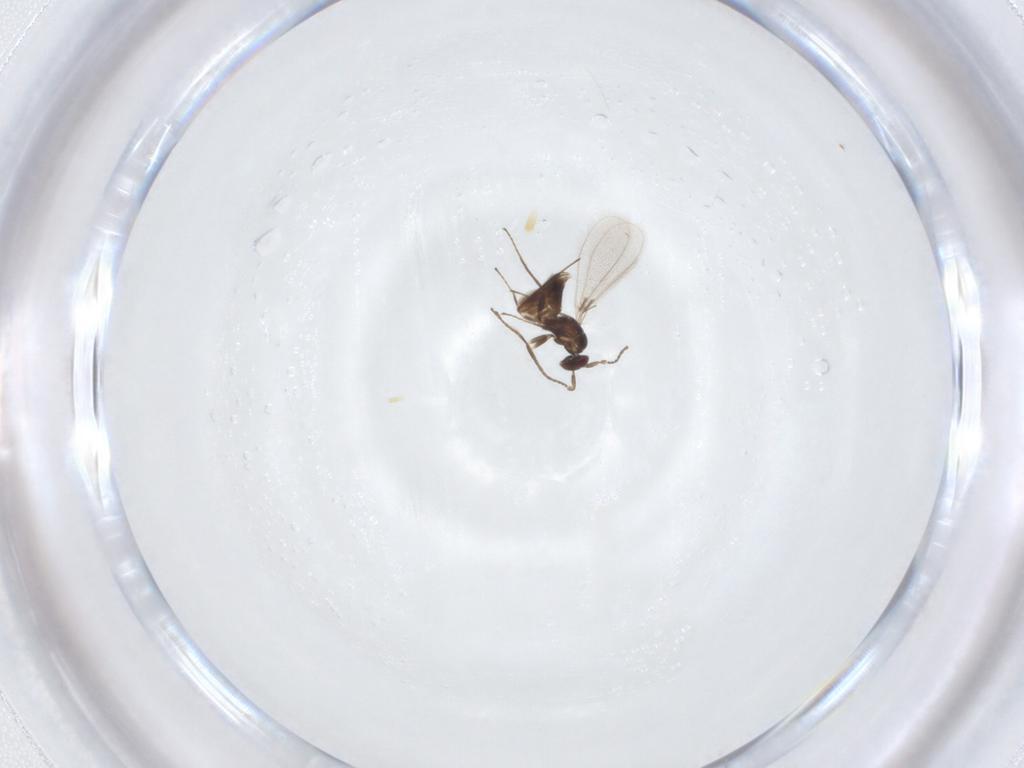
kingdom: Animalia
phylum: Arthropoda
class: Insecta
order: Hymenoptera
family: Mymaridae
